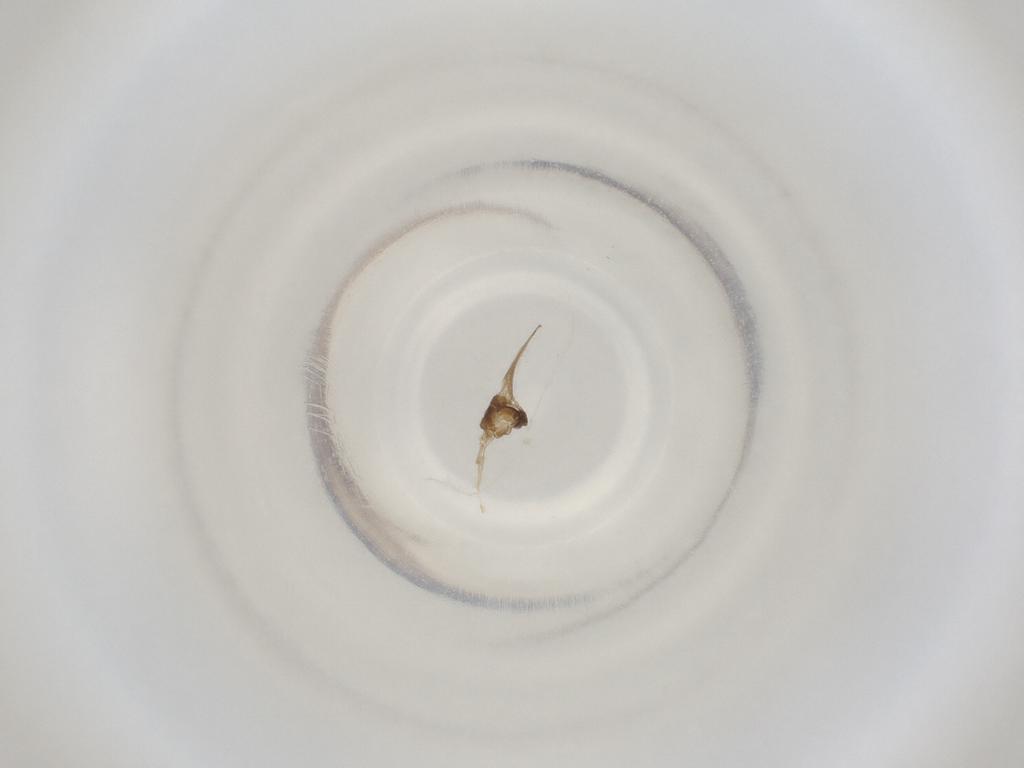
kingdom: Animalia
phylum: Arthropoda
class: Insecta
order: Diptera
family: Cecidomyiidae
